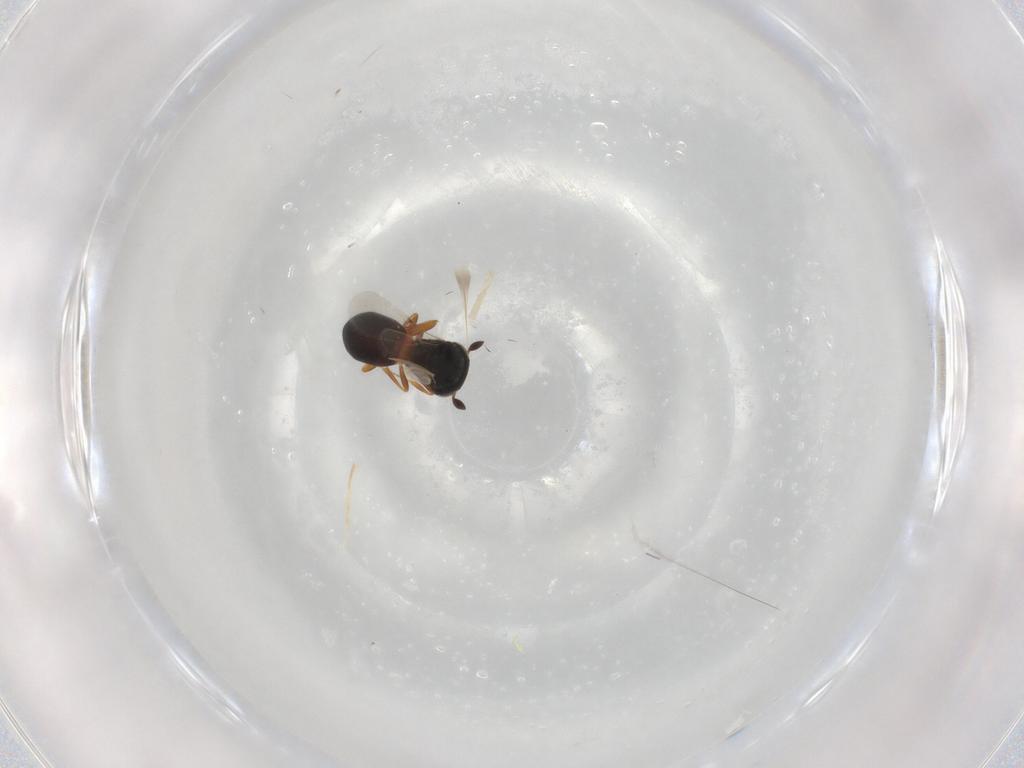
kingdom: Animalia
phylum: Arthropoda
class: Insecta
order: Hymenoptera
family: Scelionidae
